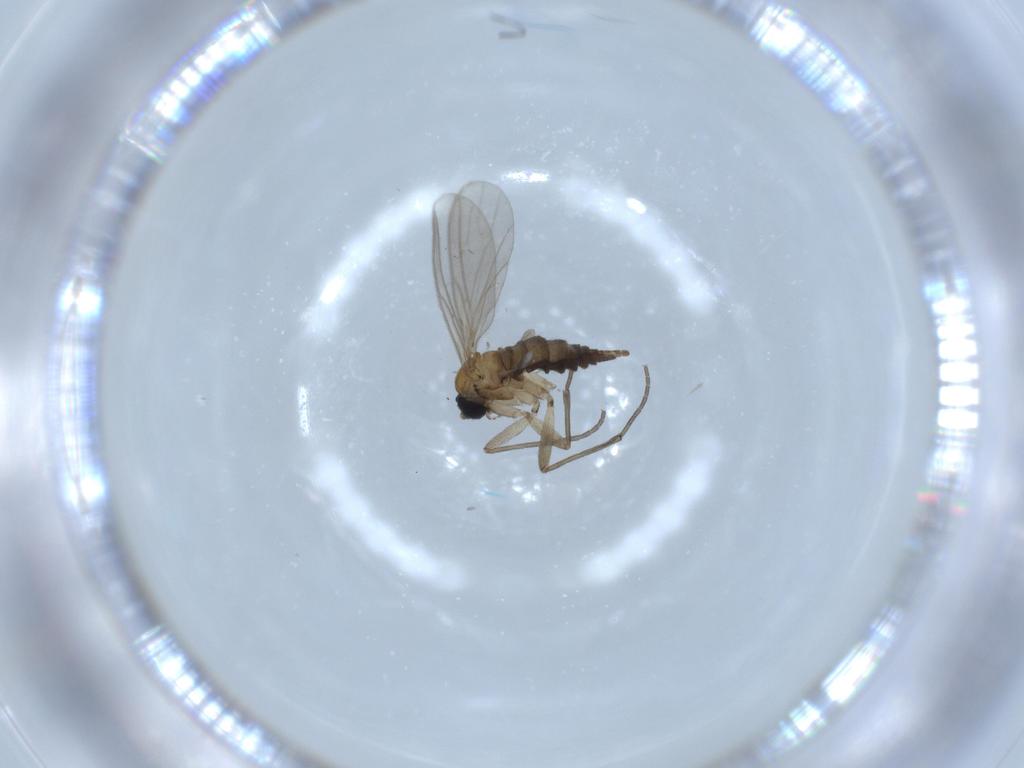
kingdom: Animalia
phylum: Arthropoda
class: Insecta
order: Diptera
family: Sciaridae
